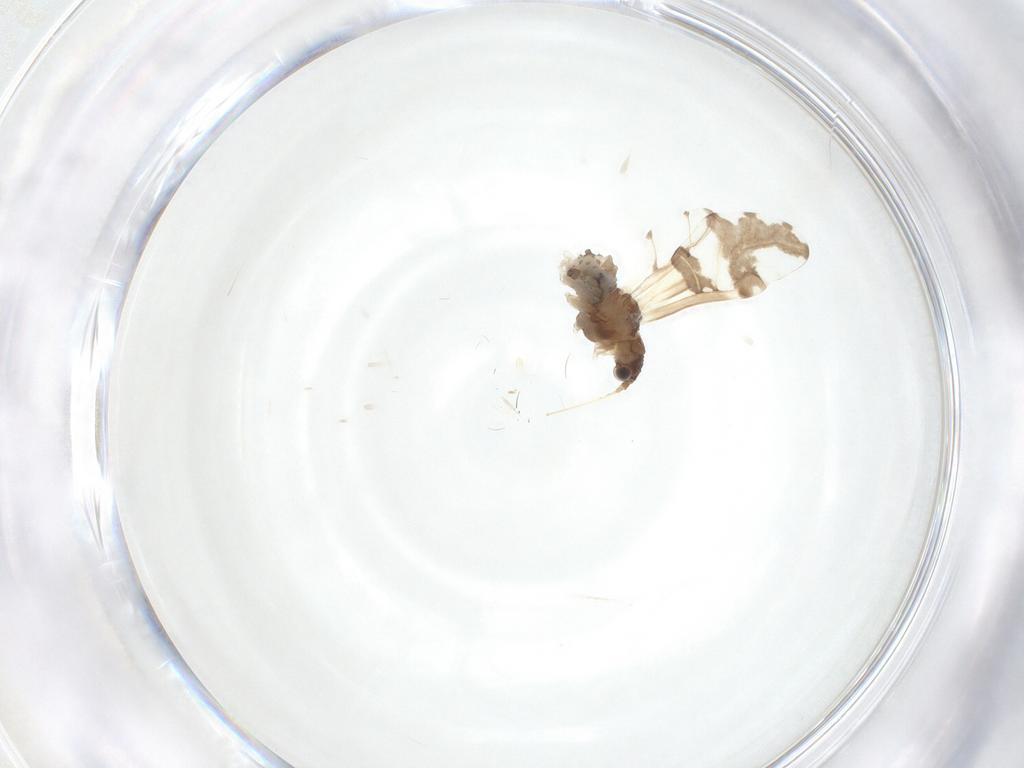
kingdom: Animalia
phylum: Arthropoda
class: Insecta
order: Hemiptera
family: Aphididae
